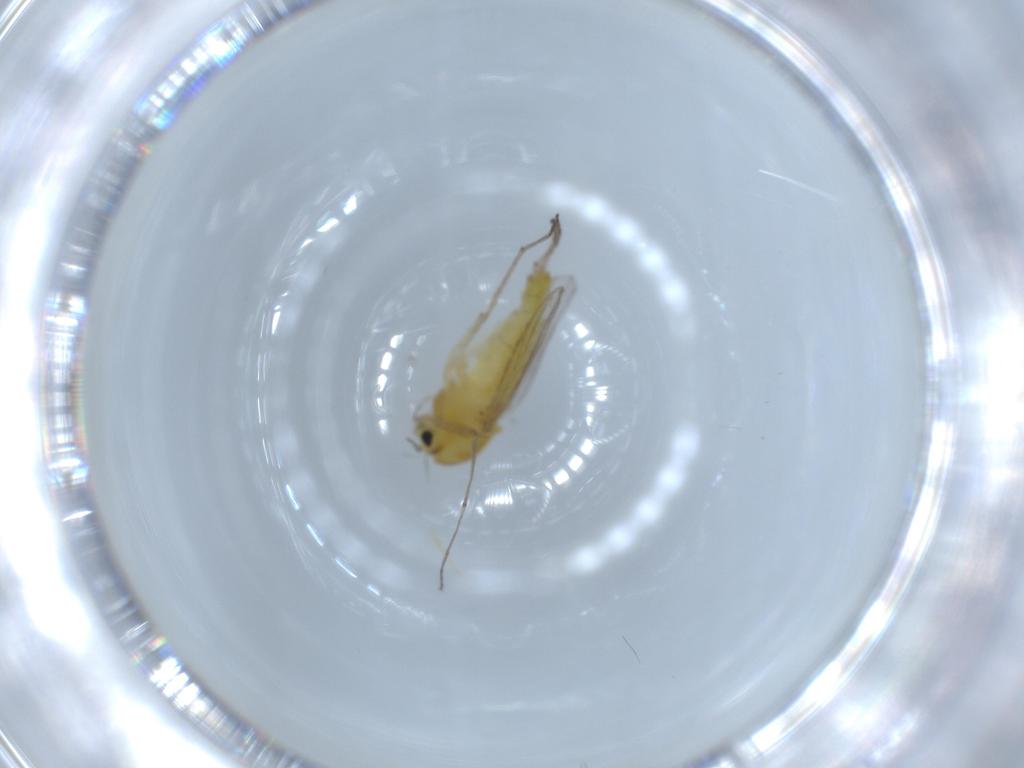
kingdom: Animalia
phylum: Arthropoda
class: Insecta
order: Diptera
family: Chironomidae
